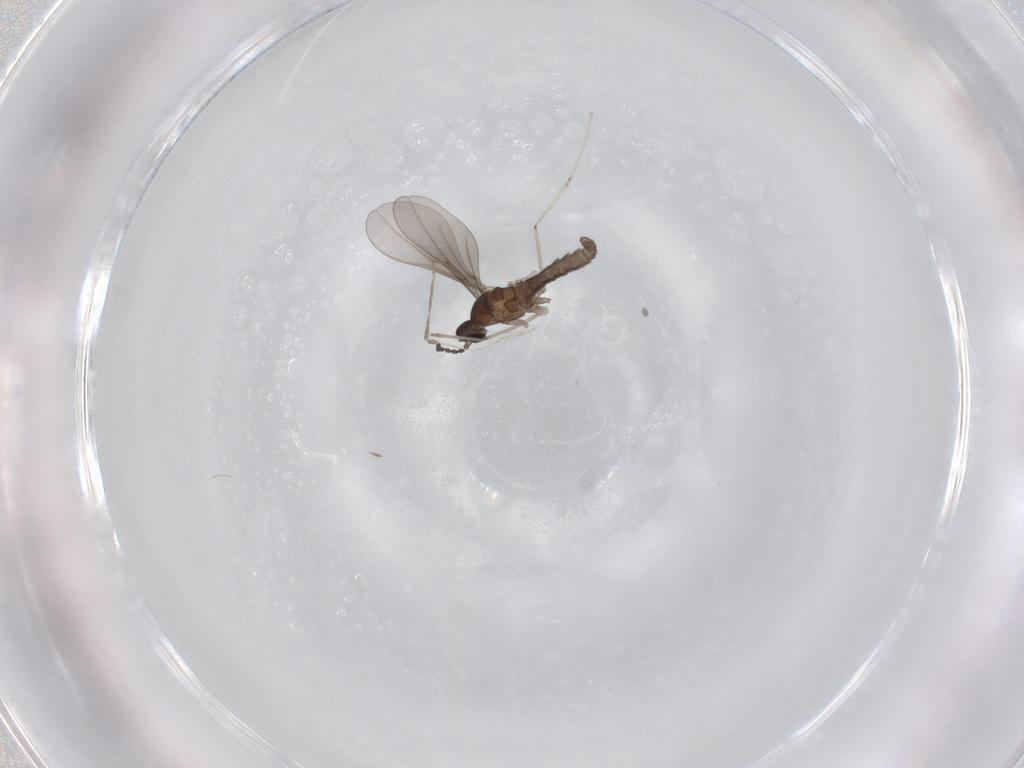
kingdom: Animalia
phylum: Arthropoda
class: Insecta
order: Diptera
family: Cecidomyiidae
